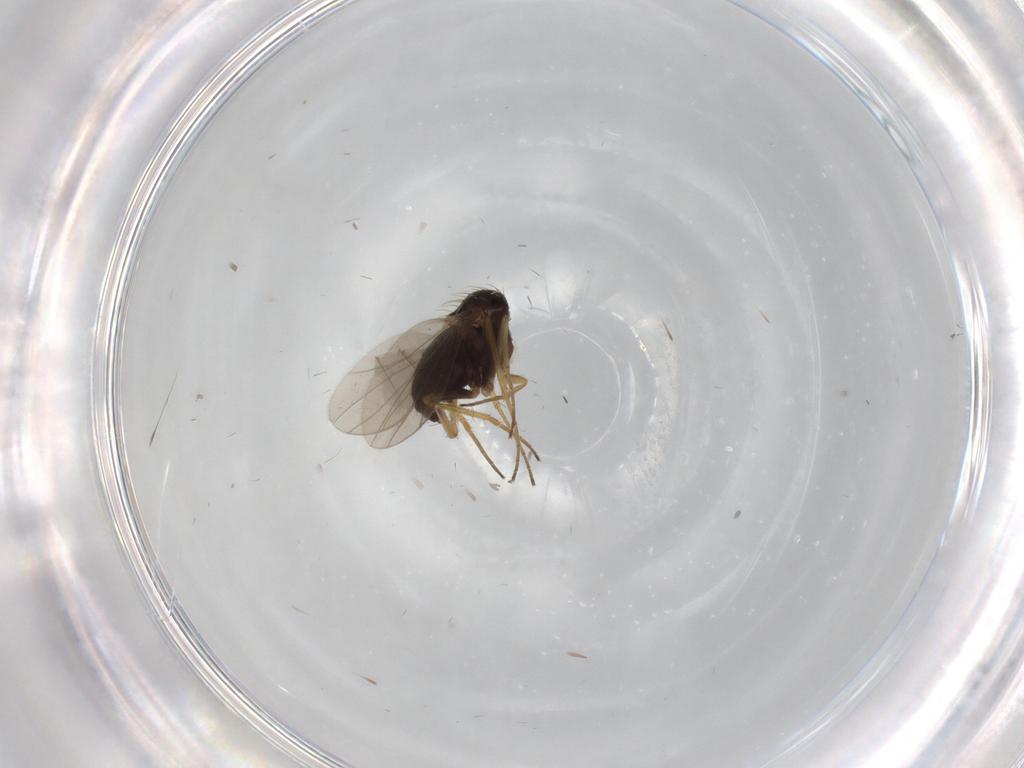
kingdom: Animalia
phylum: Arthropoda
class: Insecta
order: Diptera
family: Dolichopodidae
